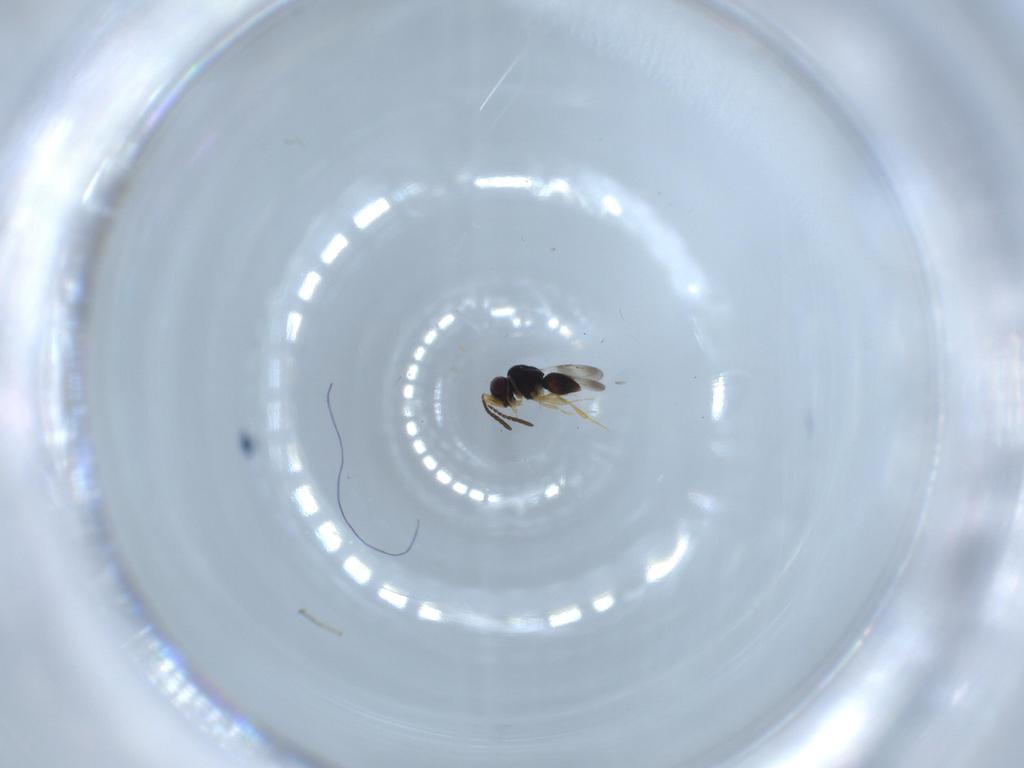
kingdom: Animalia
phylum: Arthropoda
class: Insecta
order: Hymenoptera
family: Ceraphronidae
